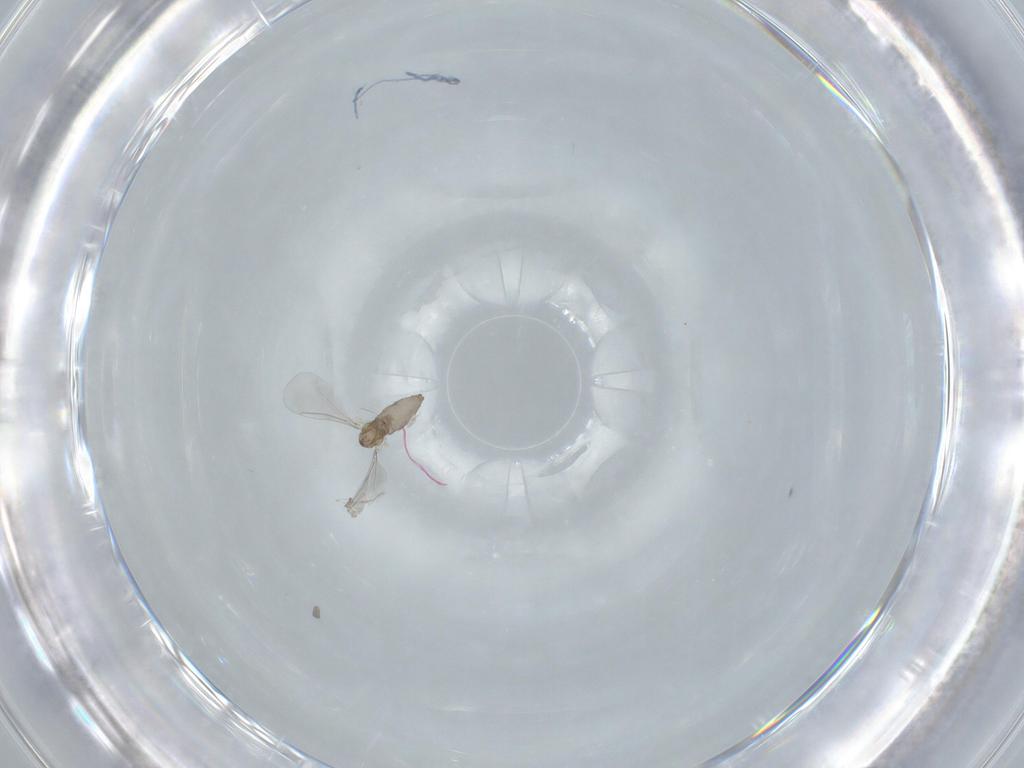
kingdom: Animalia
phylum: Arthropoda
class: Insecta
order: Diptera
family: Cecidomyiidae
